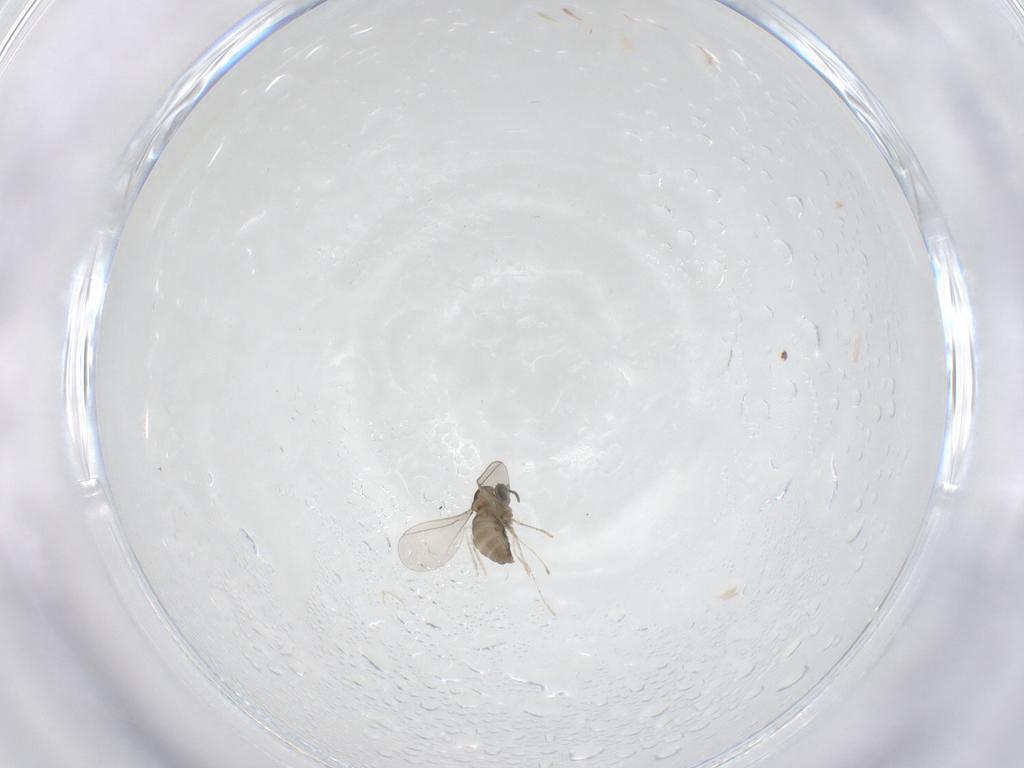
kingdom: Animalia
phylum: Arthropoda
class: Insecta
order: Diptera
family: Cecidomyiidae
